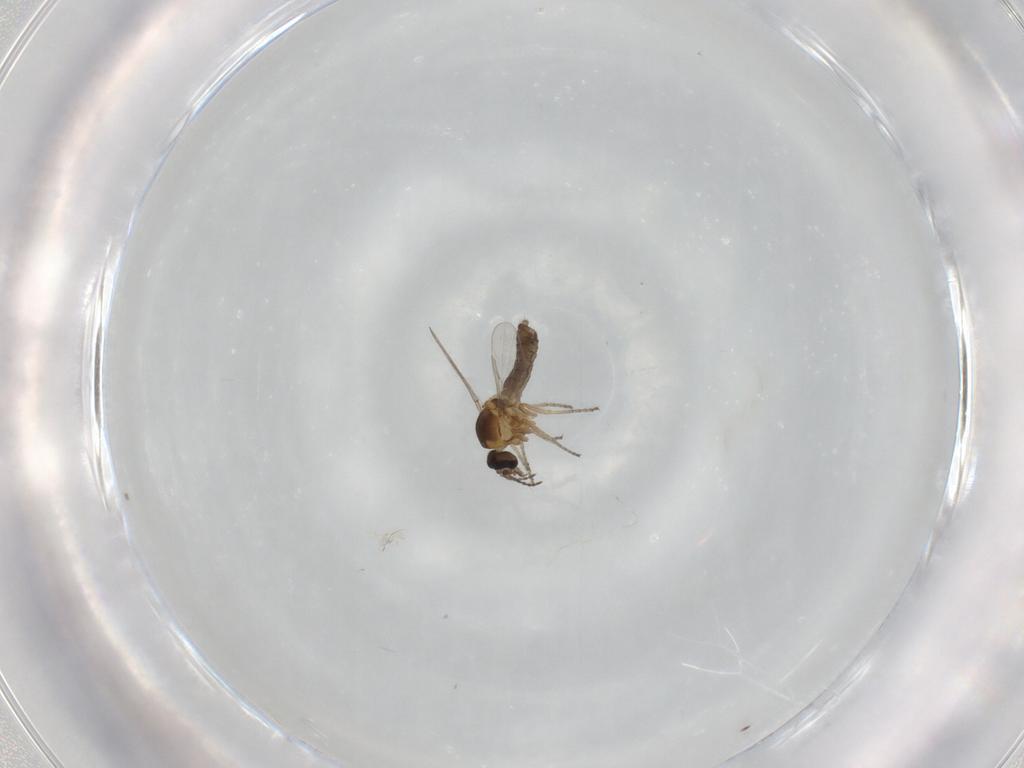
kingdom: Animalia
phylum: Arthropoda
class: Insecta
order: Diptera
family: Ceratopogonidae
